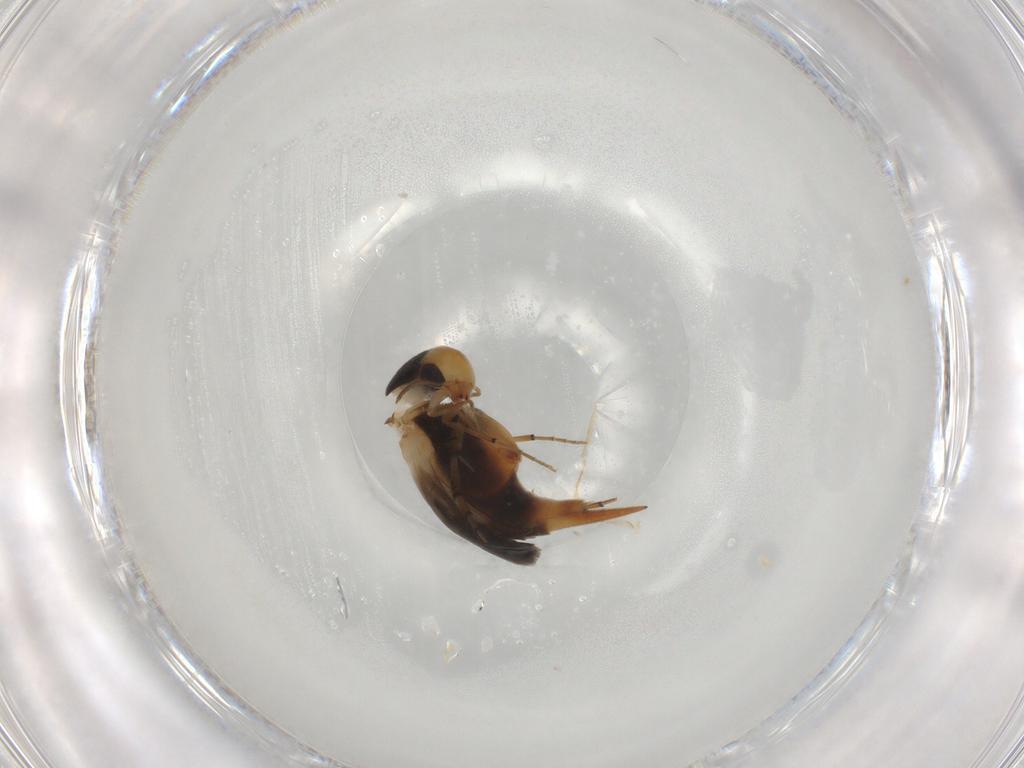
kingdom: Animalia
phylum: Arthropoda
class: Insecta
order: Coleoptera
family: Mordellidae
